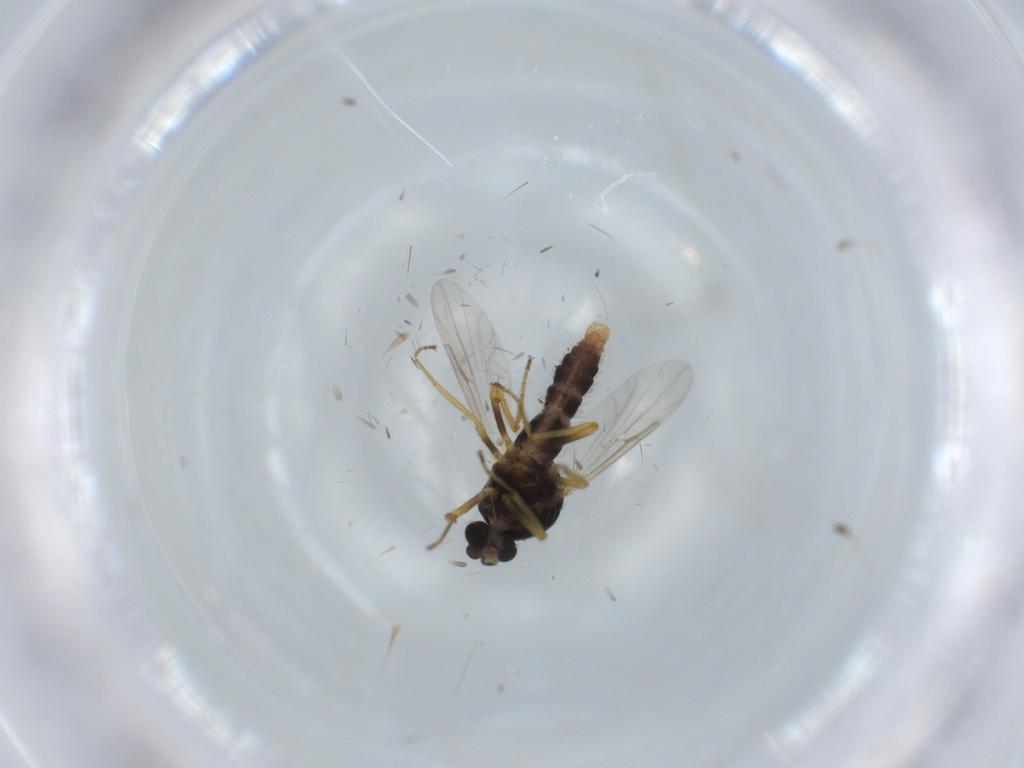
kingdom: Animalia
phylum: Arthropoda
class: Insecta
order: Diptera
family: Ceratopogonidae
